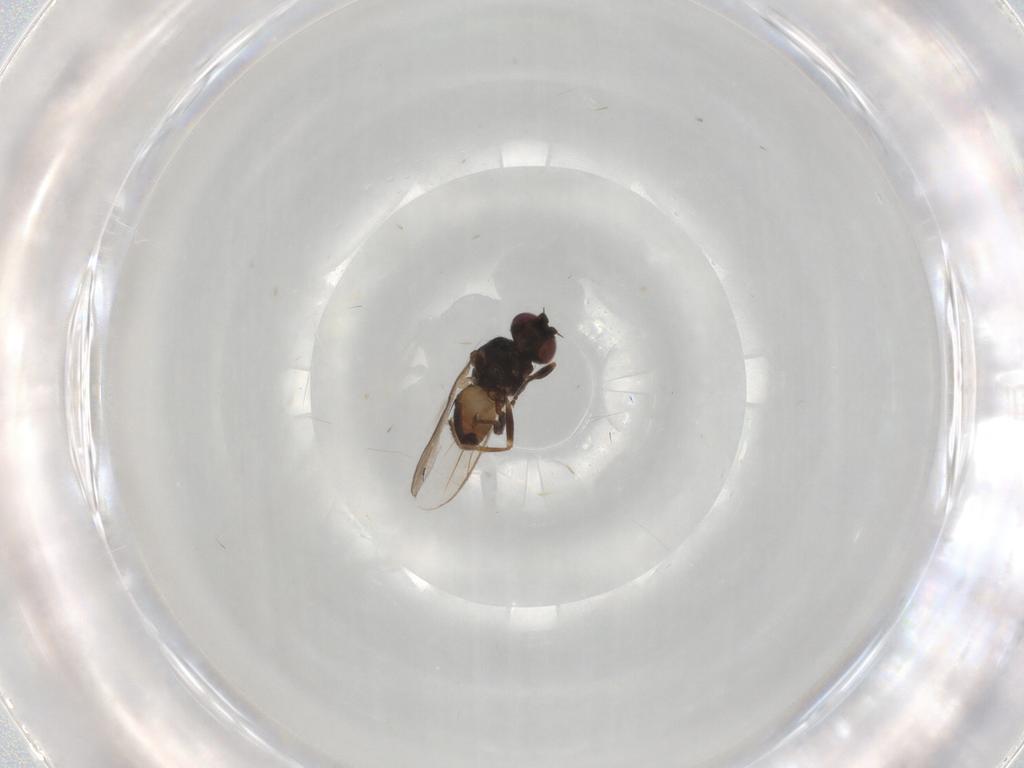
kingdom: Animalia
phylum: Arthropoda
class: Insecta
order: Diptera
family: Chloropidae
